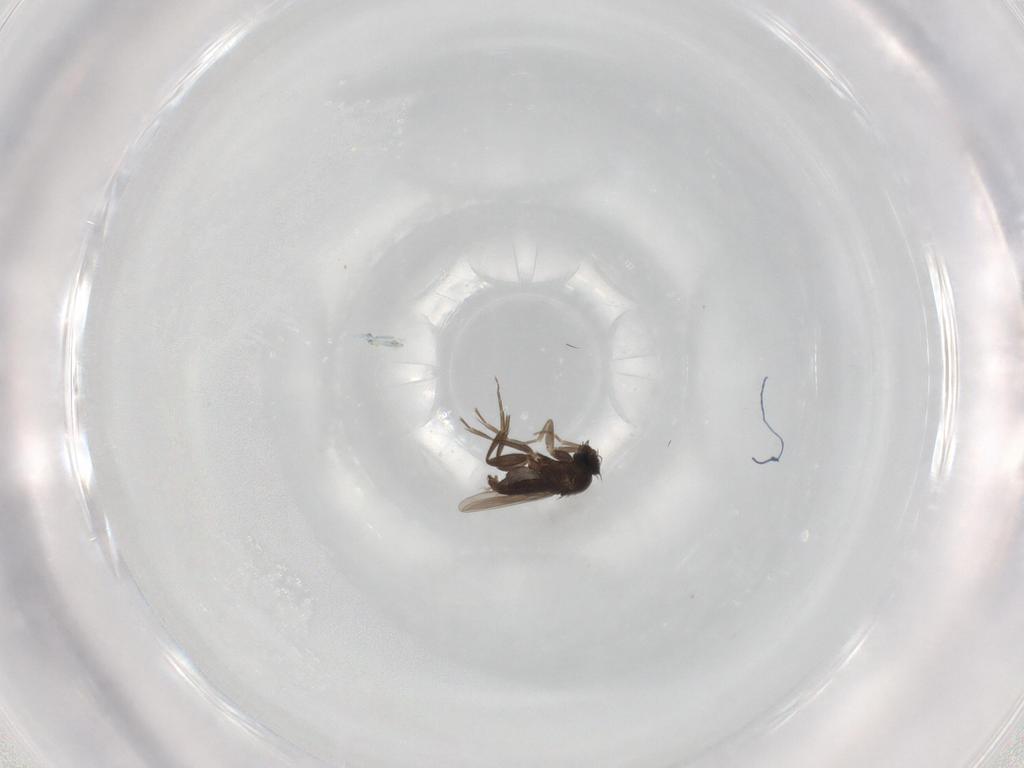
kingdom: Animalia
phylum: Arthropoda
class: Insecta
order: Diptera
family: Phoridae
